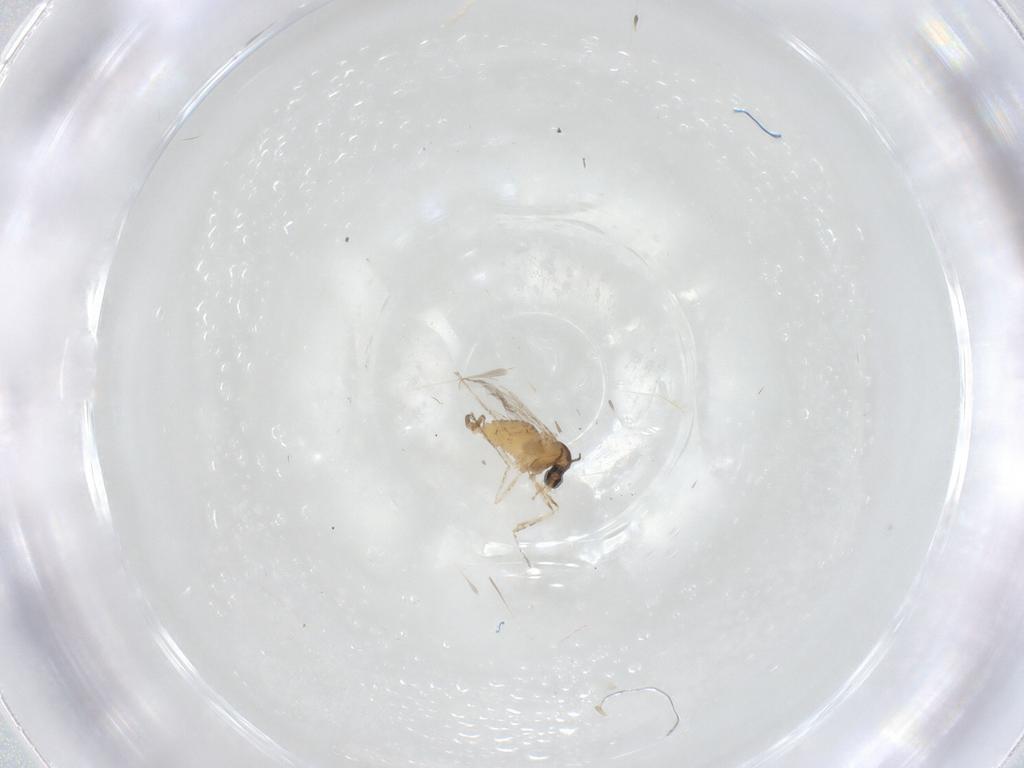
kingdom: Animalia
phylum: Arthropoda
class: Insecta
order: Diptera
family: Cecidomyiidae
